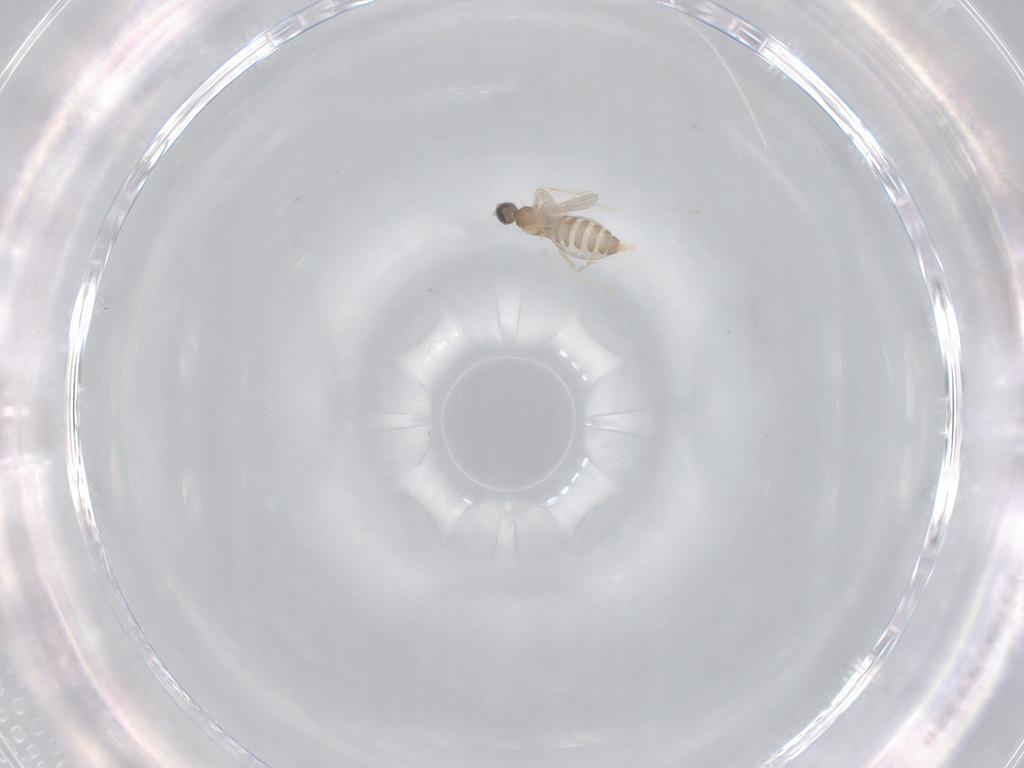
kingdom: Animalia
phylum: Arthropoda
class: Insecta
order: Diptera
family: Cecidomyiidae
